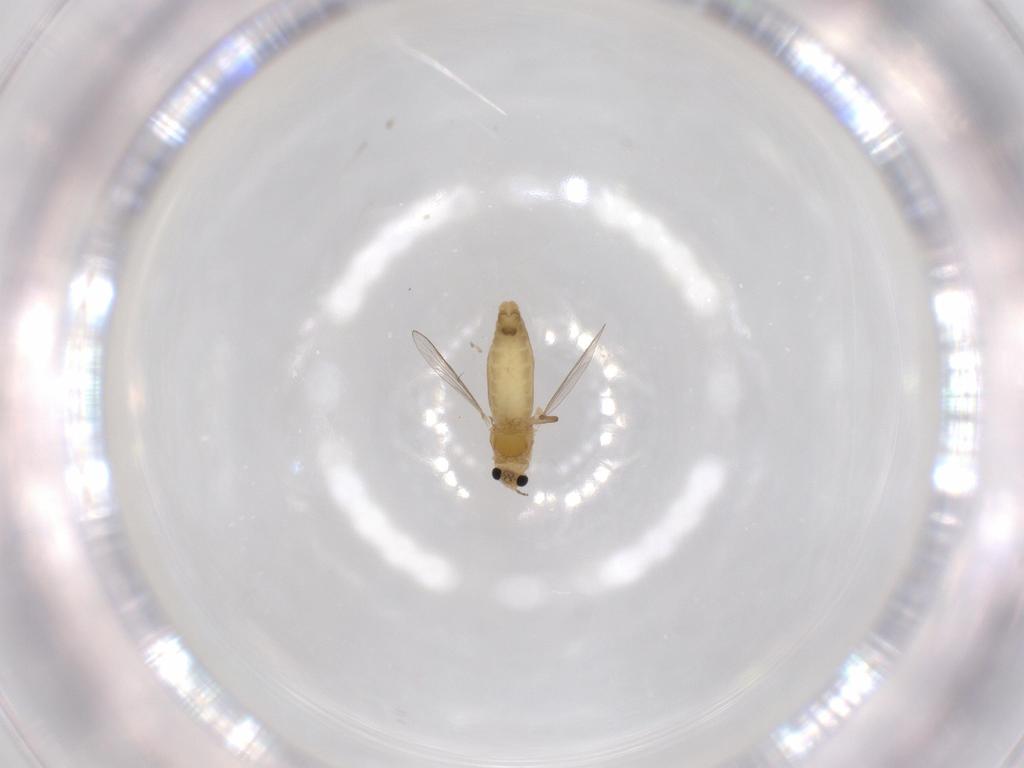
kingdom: Animalia
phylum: Arthropoda
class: Insecta
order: Diptera
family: Chironomidae
